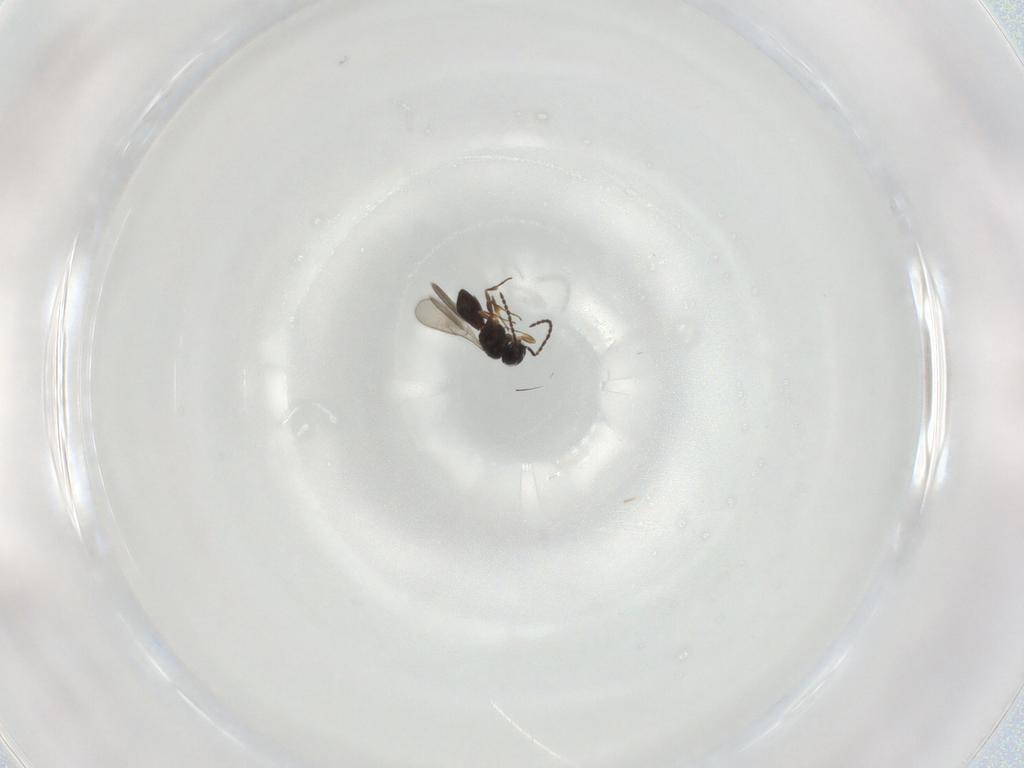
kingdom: Animalia
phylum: Arthropoda
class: Insecta
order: Hymenoptera
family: Scelionidae
